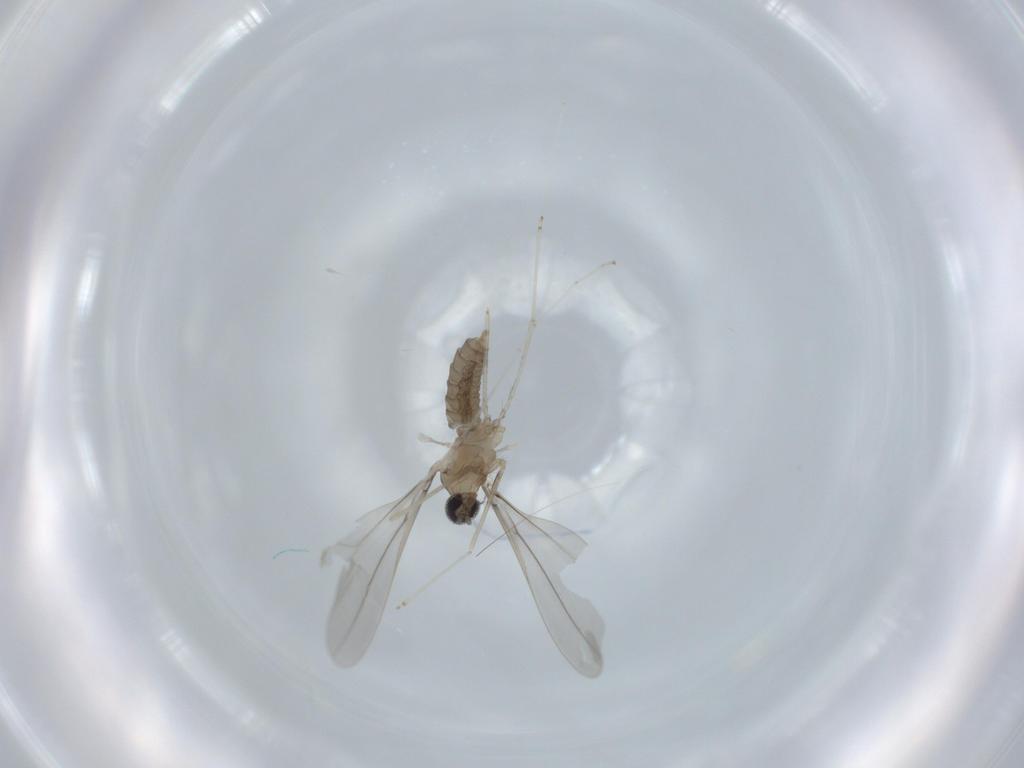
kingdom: Animalia
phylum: Arthropoda
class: Insecta
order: Diptera
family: Cecidomyiidae
